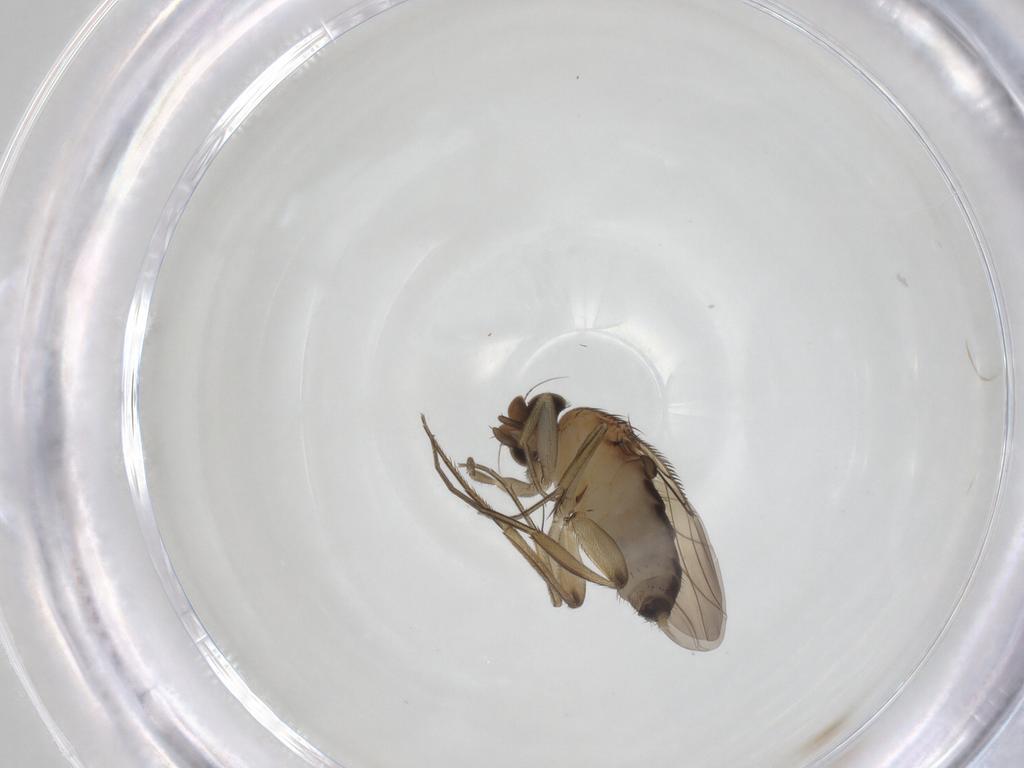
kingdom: Animalia
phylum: Arthropoda
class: Insecta
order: Diptera
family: Phoridae
